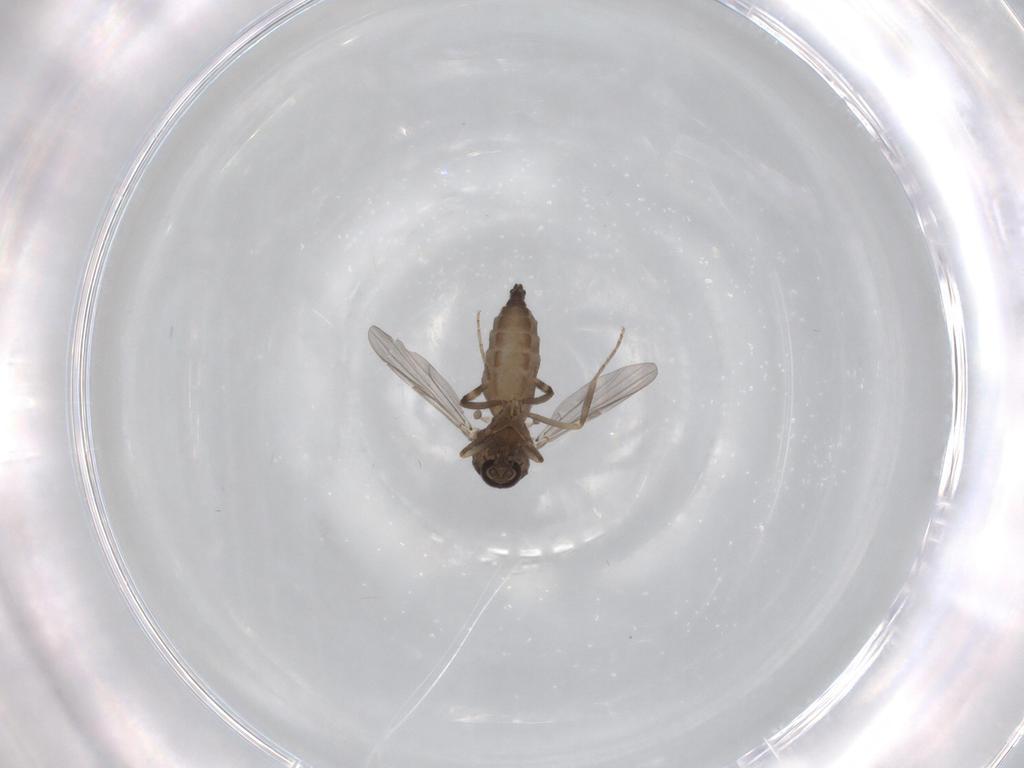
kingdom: Animalia
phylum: Arthropoda
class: Insecta
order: Diptera
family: Ceratopogonidae
